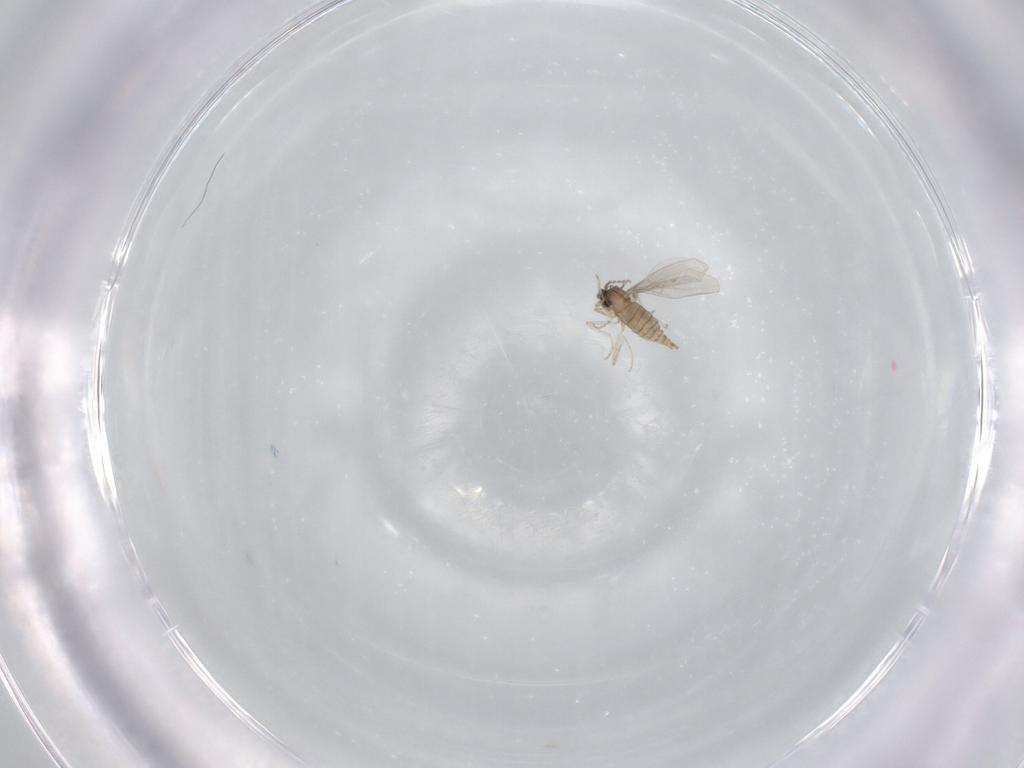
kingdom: Animalia
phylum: Arthropoda
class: Insecta
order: Diptera
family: Cecidomyiidae
